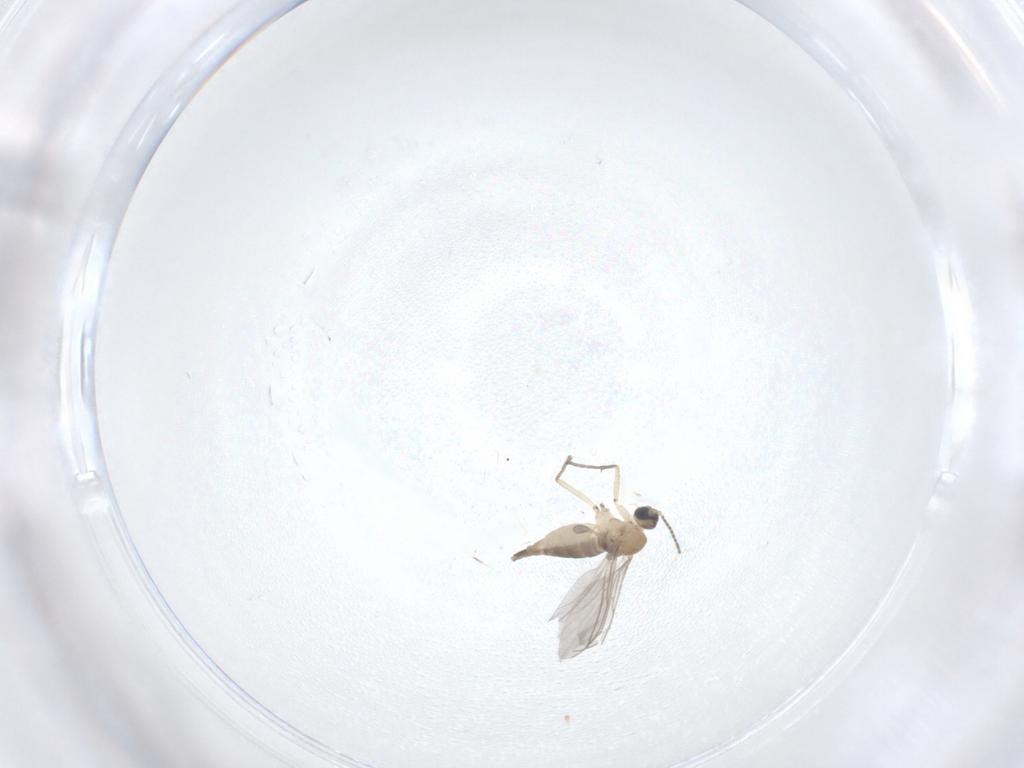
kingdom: Animalia
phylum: Arthropoda
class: Insecta
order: Diptera
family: Sciaridae
